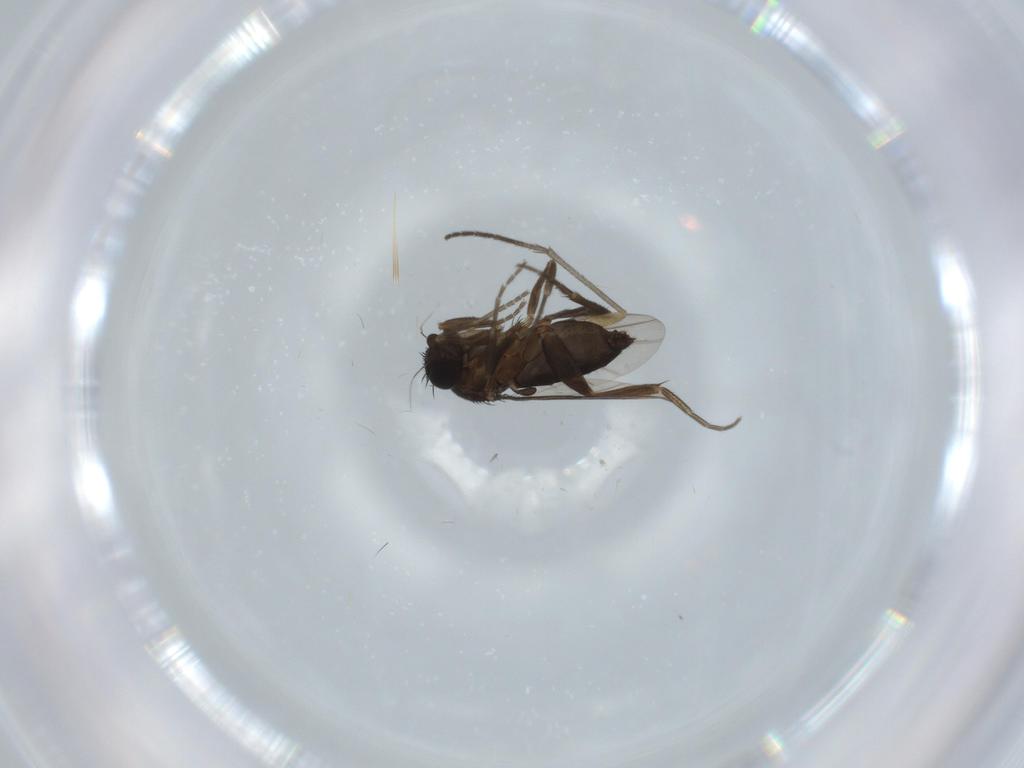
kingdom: Animalia
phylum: Arthropoda
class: Insecta
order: Diptera
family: Phoridae
